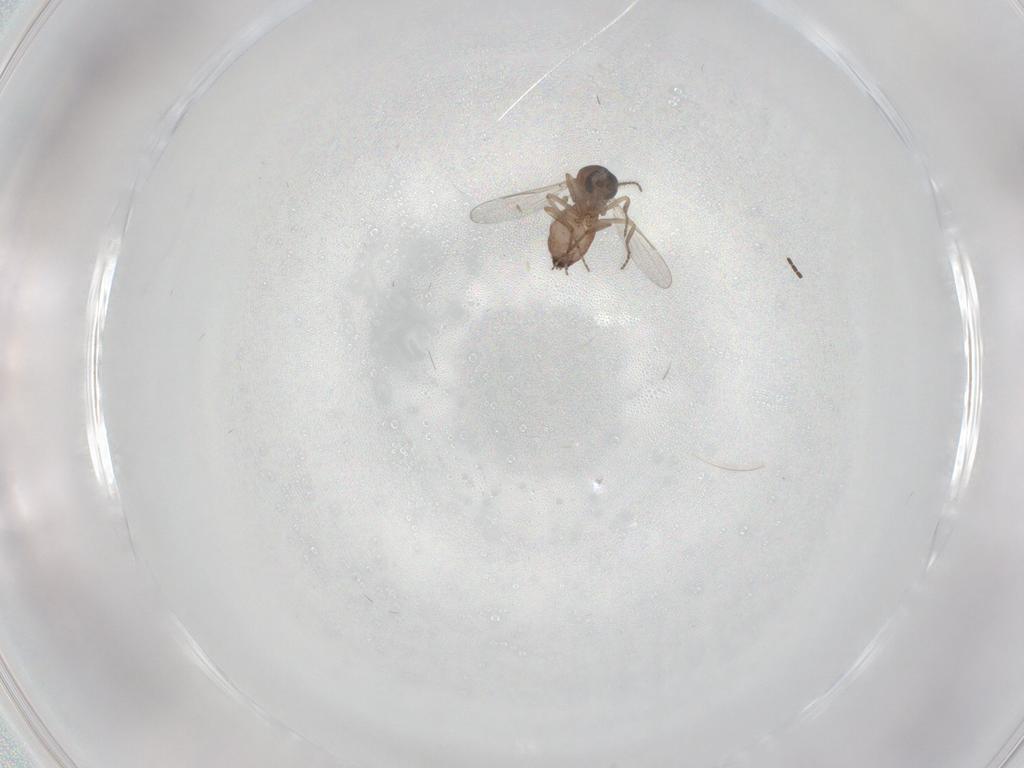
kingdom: Animalia
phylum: Arthropoda
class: Insecta
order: Diptera
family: Ceratopogonidae
